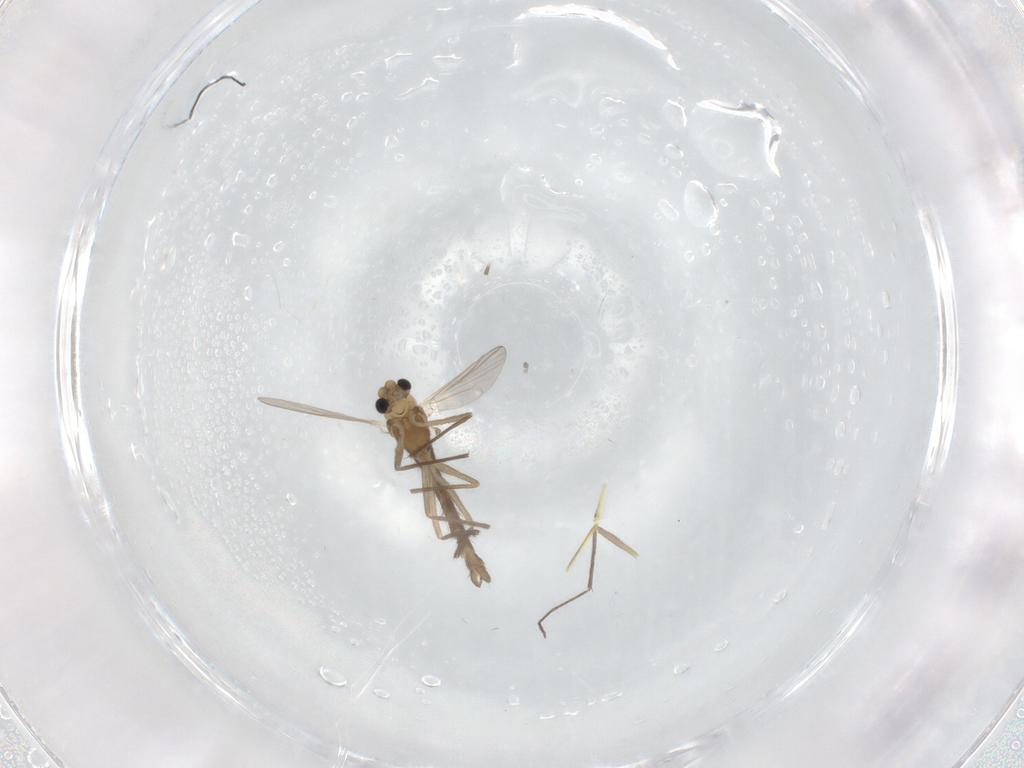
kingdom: Animalia
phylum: Arthropoda
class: Insecta
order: Diptera
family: Chironomidae
